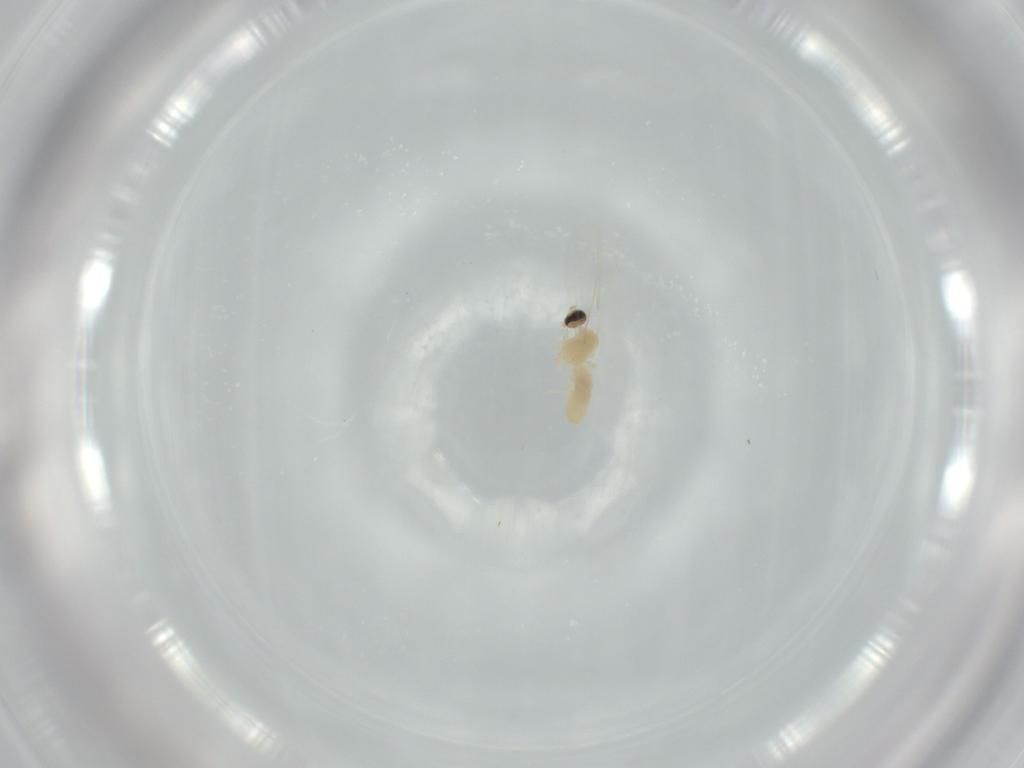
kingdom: Animalia
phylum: Arthropoda
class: Insecta
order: Diptera
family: Cecidomyiidae
